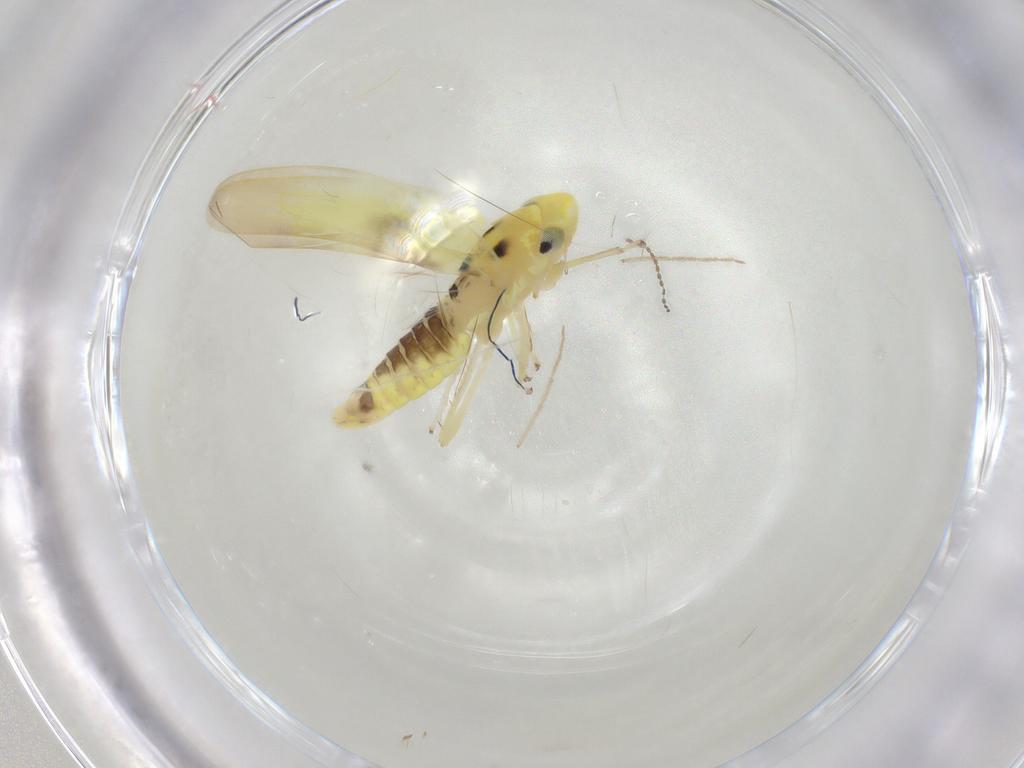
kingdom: Animalia
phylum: Arthropoda
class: Insecta
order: Hemiptera
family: Cicadellidae
